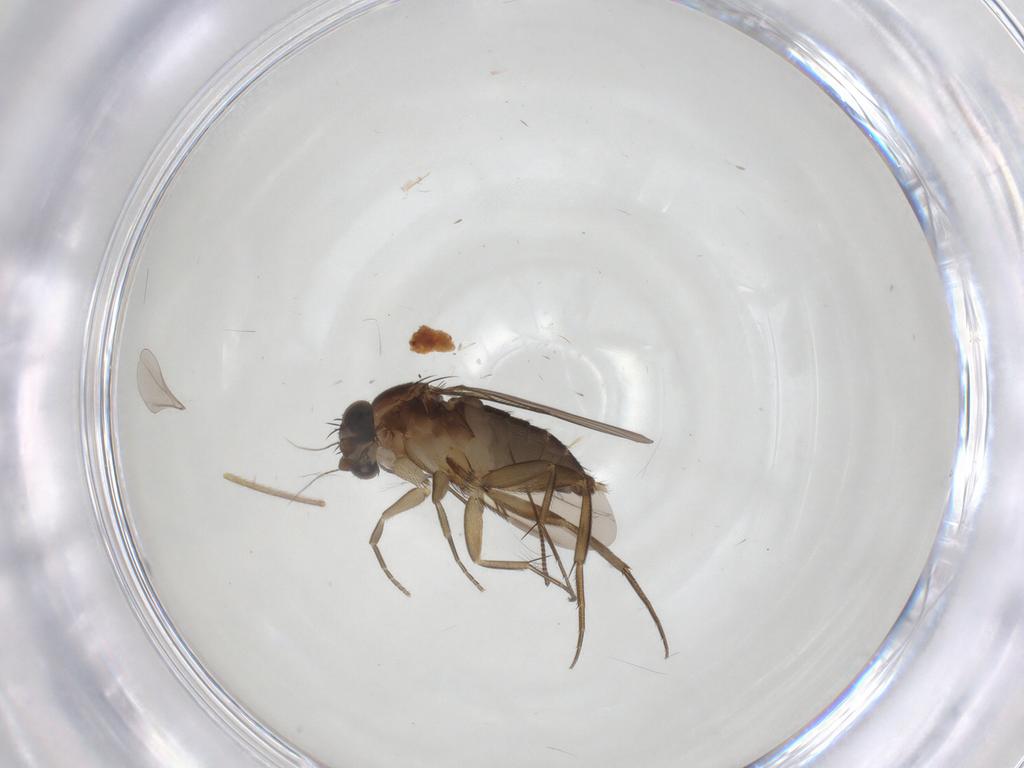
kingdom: Animalia
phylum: Arthropoda
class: Insecta
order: Diptera
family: Phoridae
